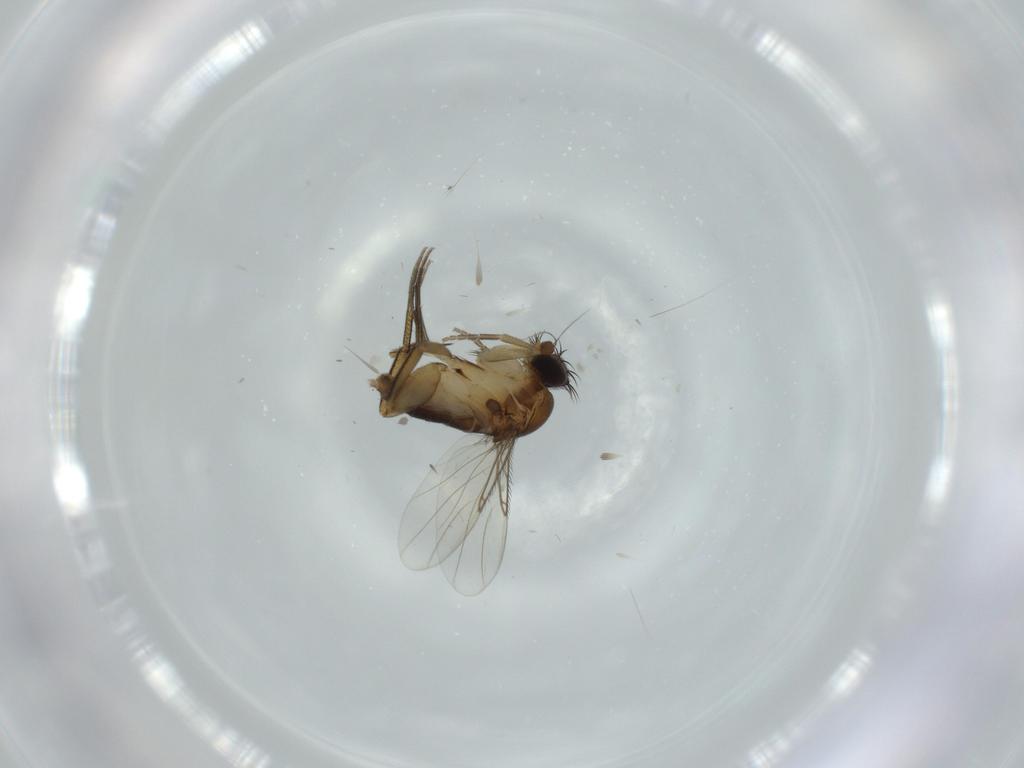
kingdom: Animalia
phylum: Arthropoda
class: Insecta
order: Diptera
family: Phoridae
